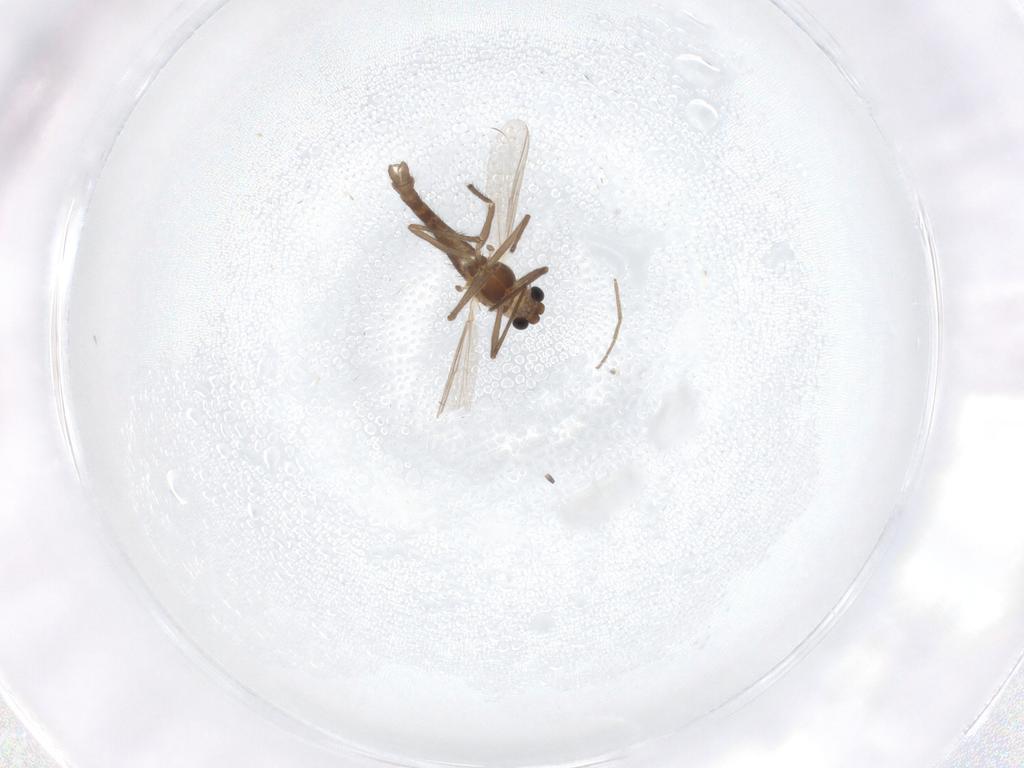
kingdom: Animalia
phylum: Arthropoda
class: Insecta
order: Diptera
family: Chironomidae
